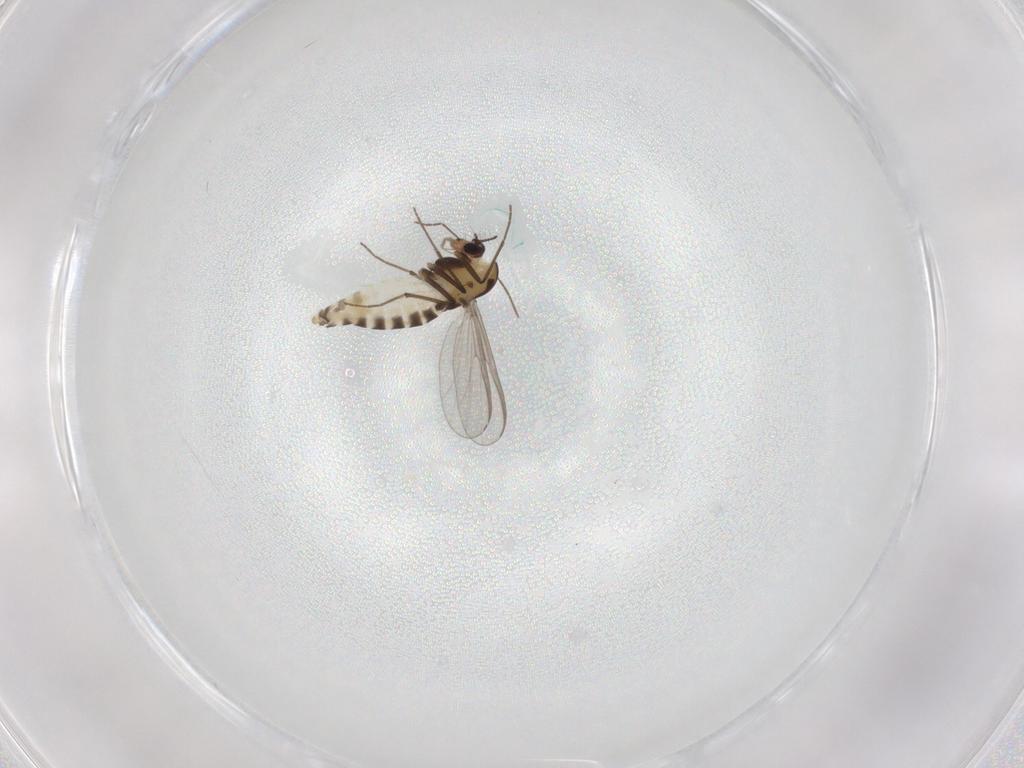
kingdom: Animalia
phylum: Arthropoda
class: Insecta
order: Diptera
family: Chironomidae
